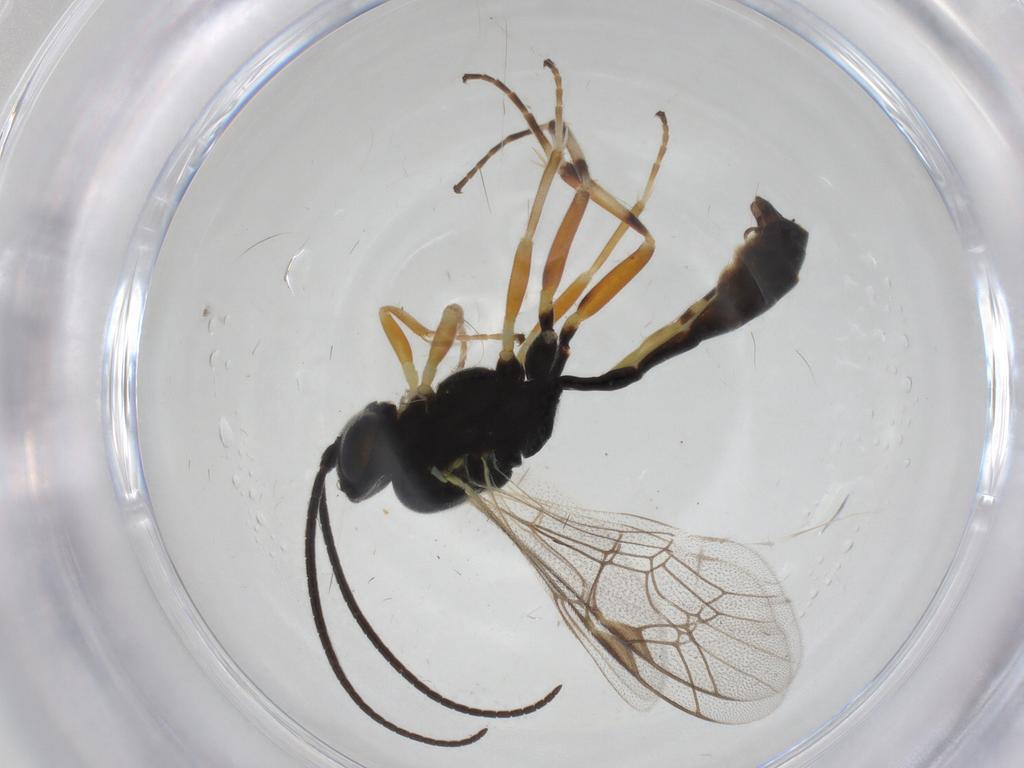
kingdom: Animalia
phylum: Arthropoda
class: Insecta
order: Hymenoptera
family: Ichneumonidae
